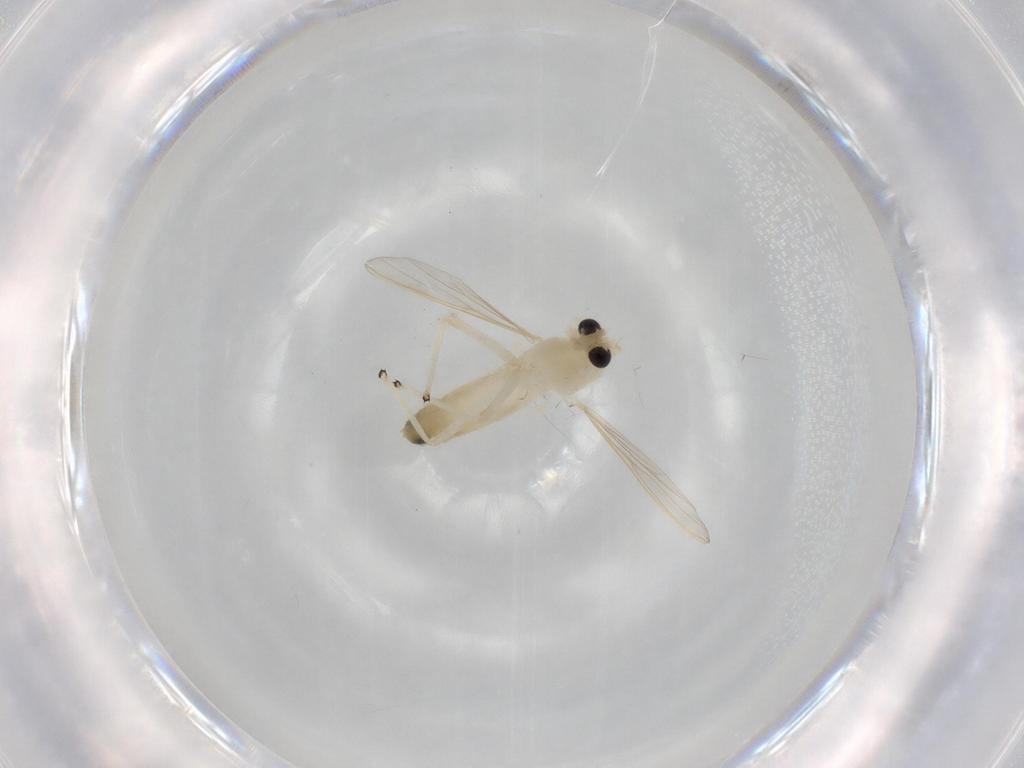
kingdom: Animalia
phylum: Arthropoda
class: Insecta
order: Diptera
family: Chironomidae
